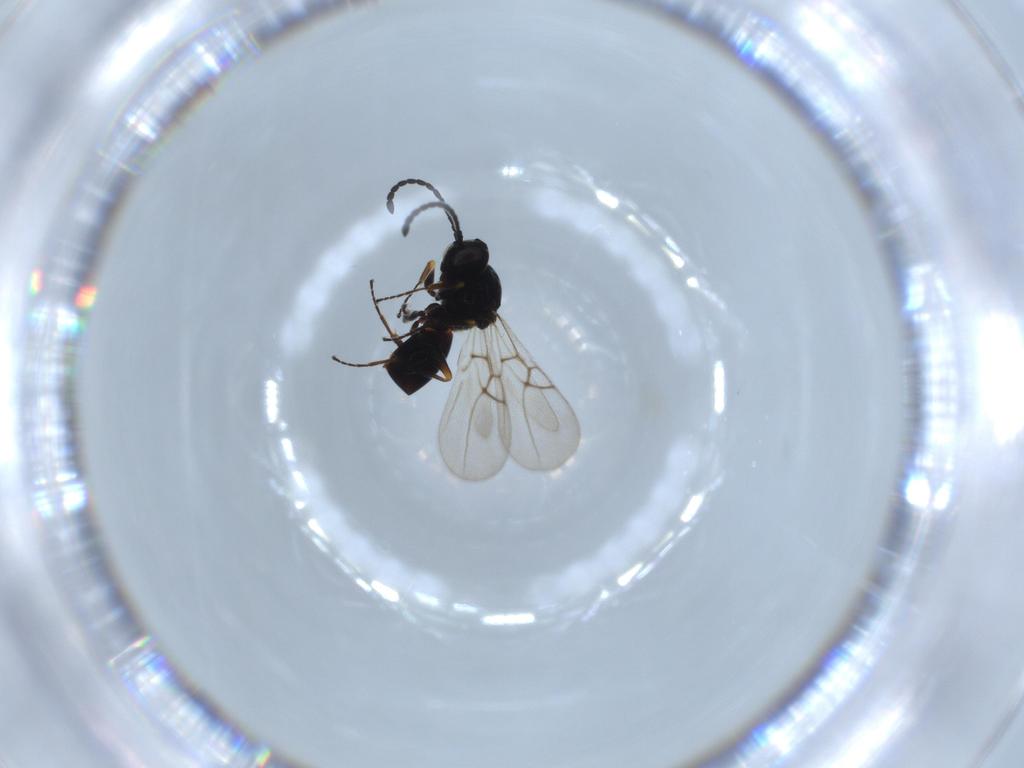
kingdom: Animalia
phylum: Arthropoda
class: Insecta
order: Hymenoptera
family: Figitidae
